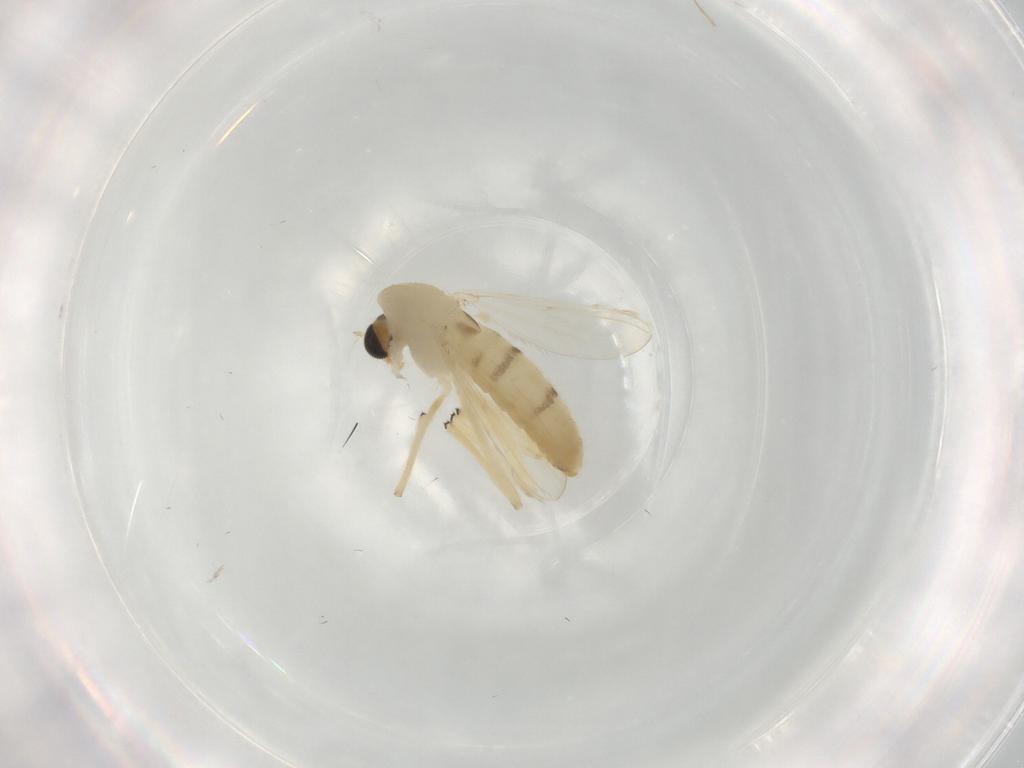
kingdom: Animalia
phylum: Arthropoda
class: Insecta
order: Diptera
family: Chironomidae
